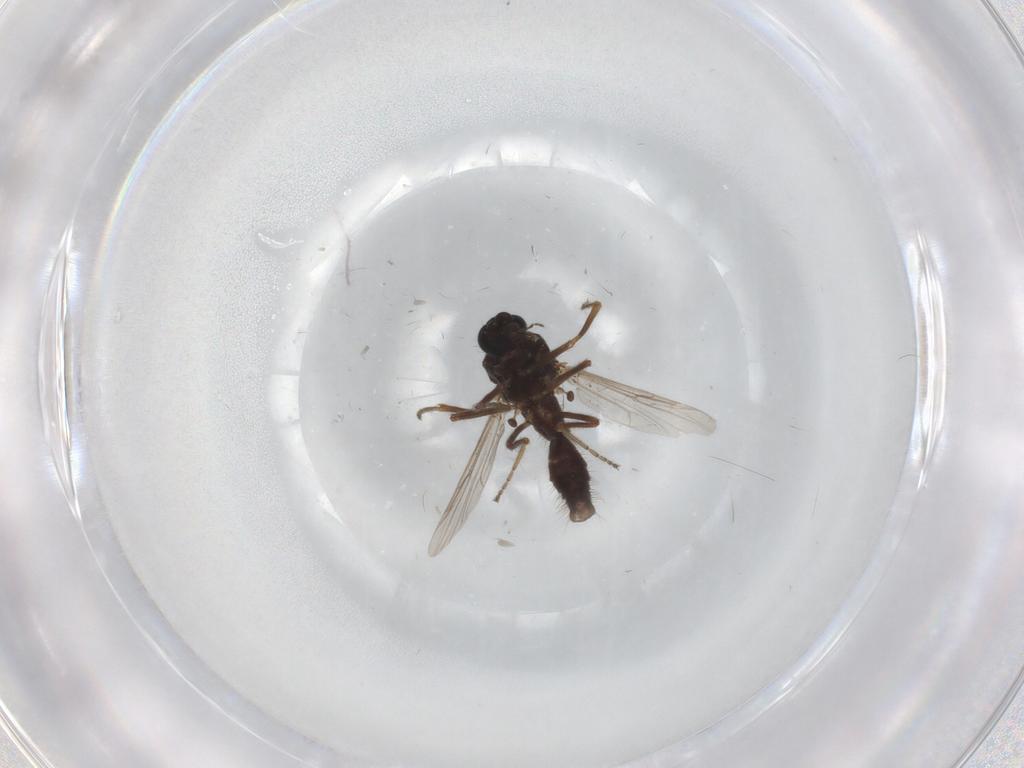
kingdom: Animalia
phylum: Arthropoda
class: Insecta
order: Diptera
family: Ceratopogonidae
